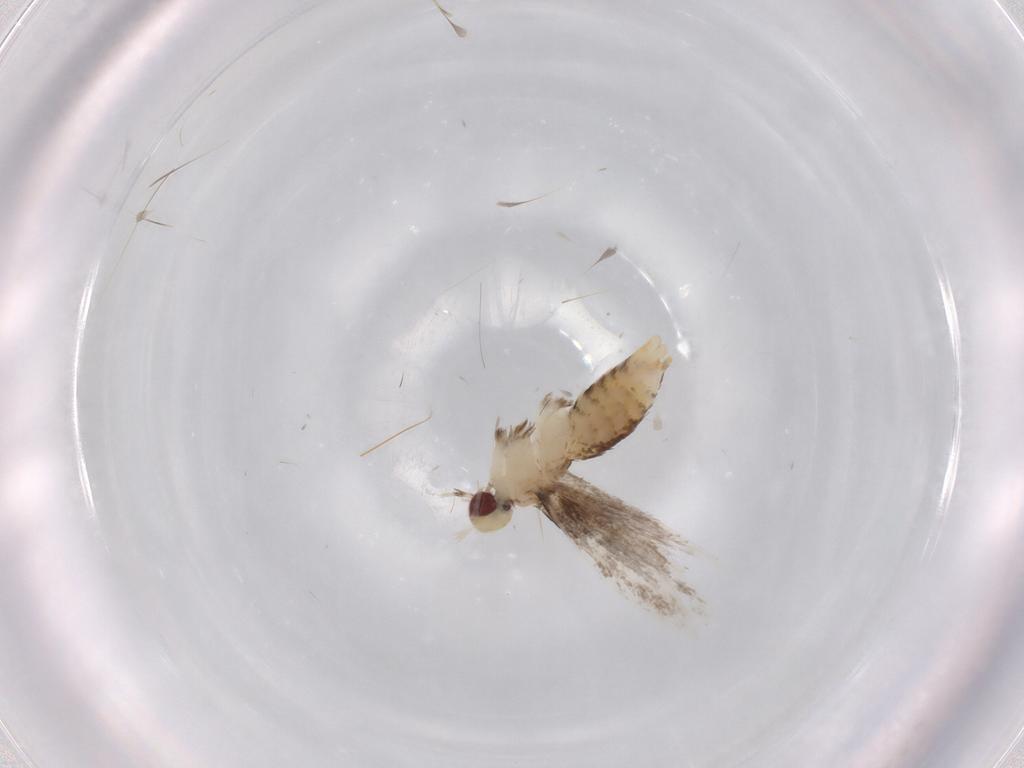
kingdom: Animalia
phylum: Arthropoda
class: Insecta
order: Lepidoptera
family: Gracillariidae
